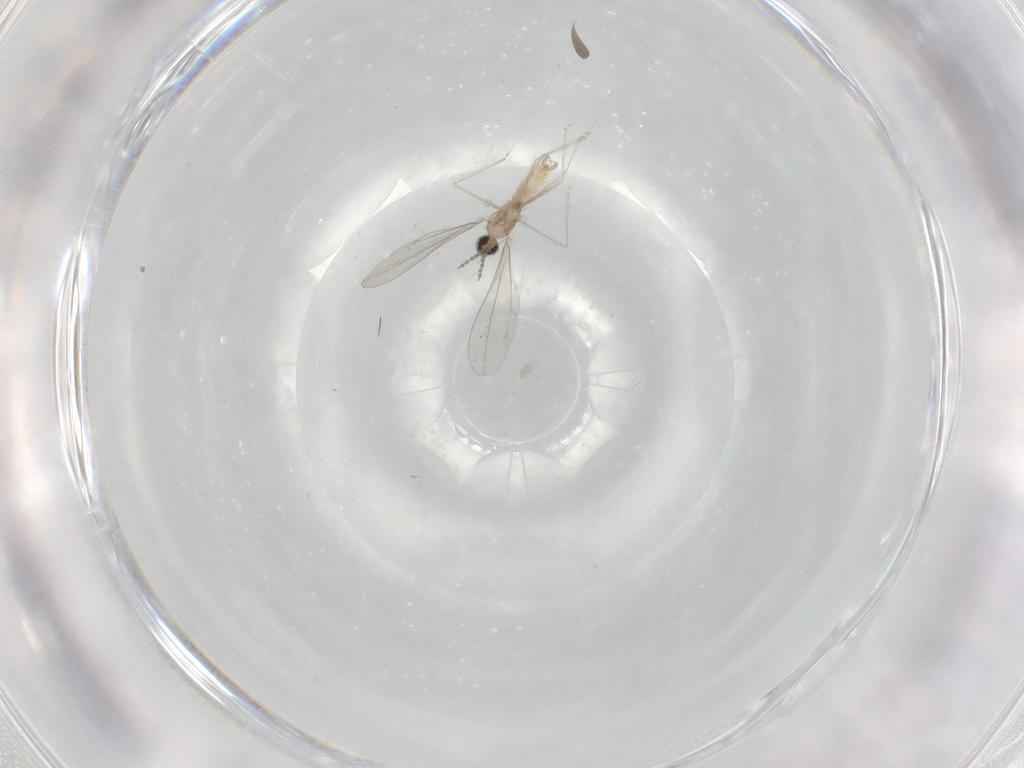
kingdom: Animalia
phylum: Arthropoda
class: Insecta
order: Diptera
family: Cecidomyiidae
